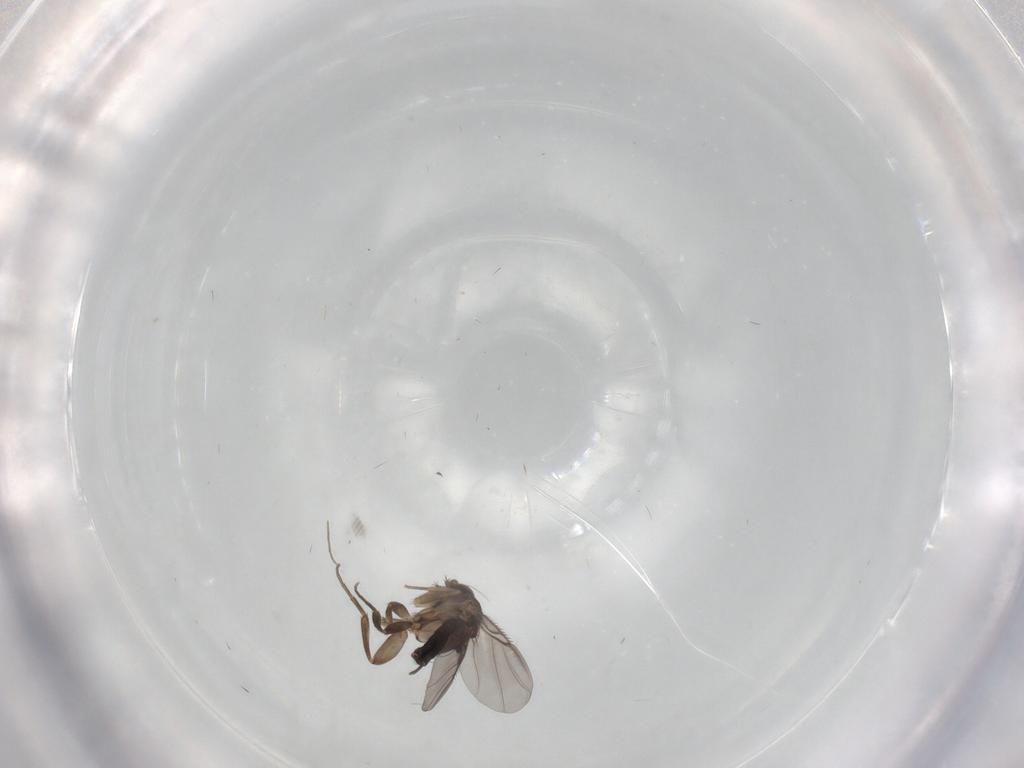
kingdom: Animalia
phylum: Arthropoda
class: Insecta
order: Diptera
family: Phoridae
